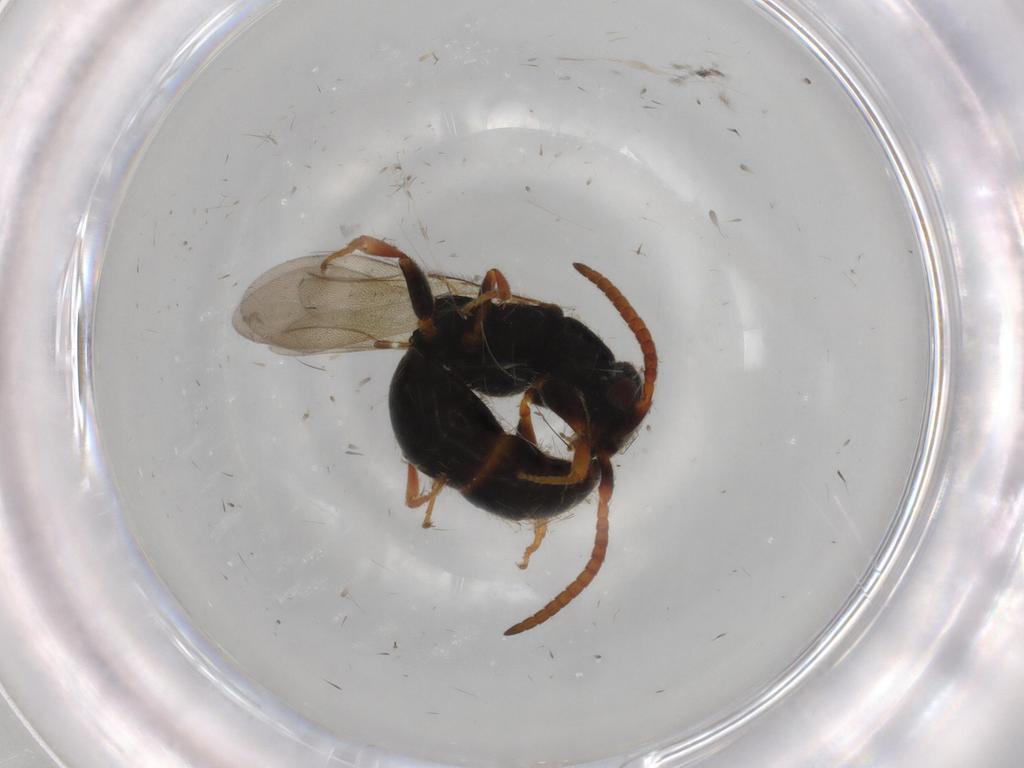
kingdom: Animalia
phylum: Arthropoda
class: Insecta
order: Hymenoptera
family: Bethylidae
